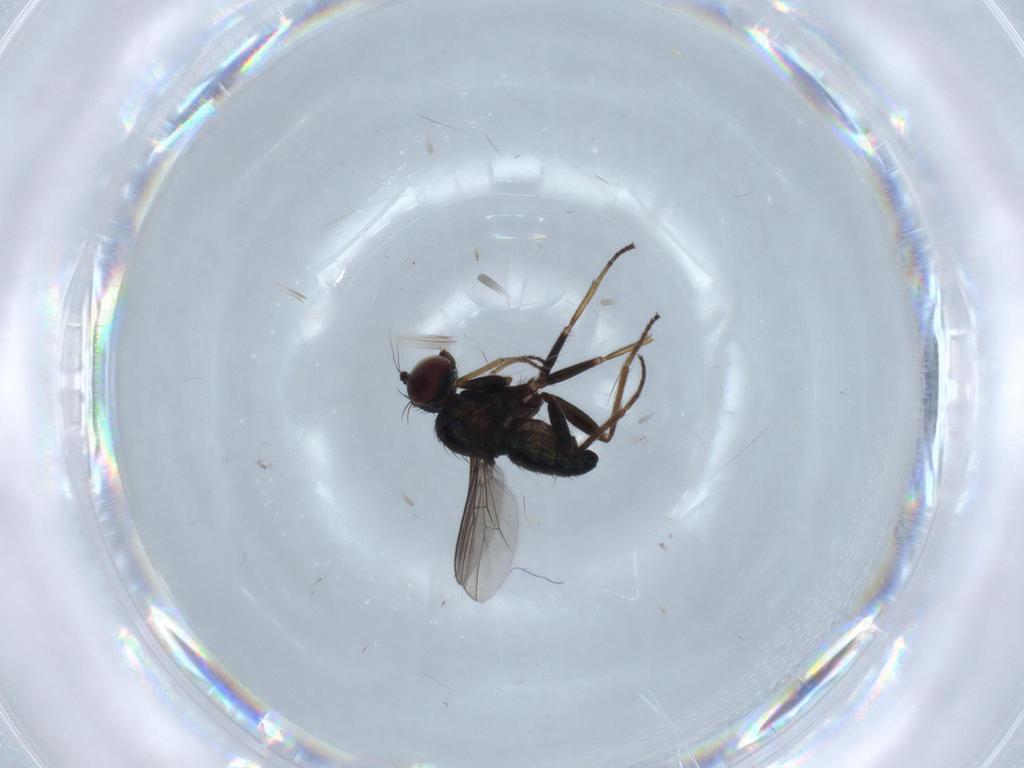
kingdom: Animalia
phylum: Arthropoda
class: Insecta
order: Diptera
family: Dolichopodidae
